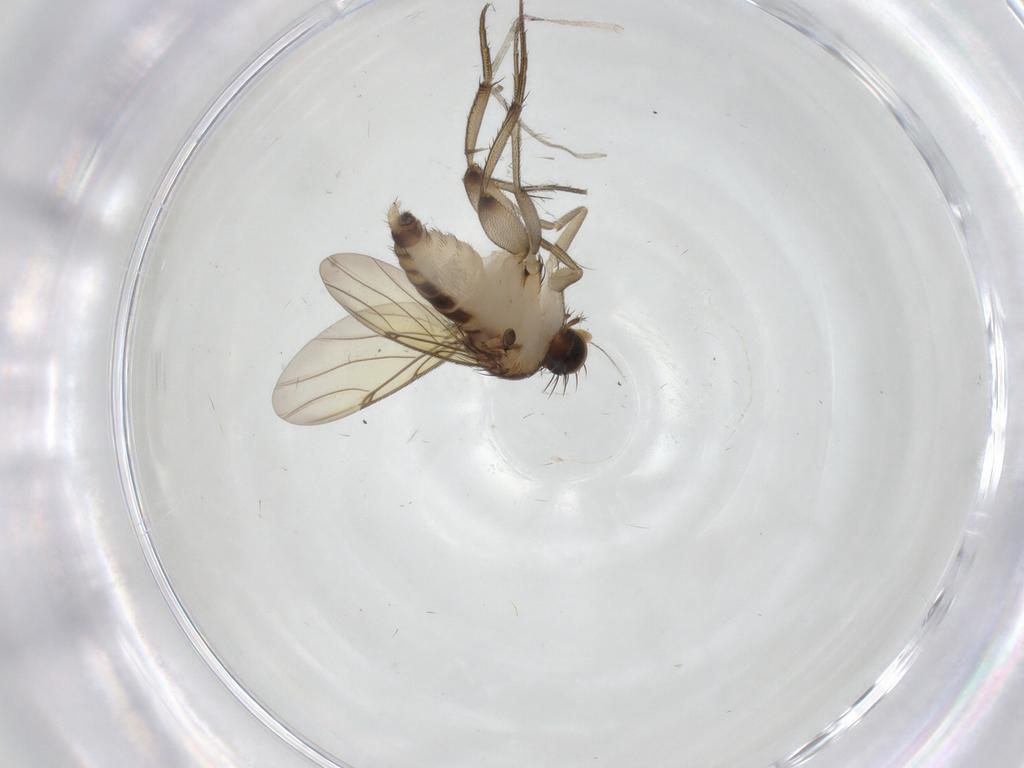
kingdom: Animalia
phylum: Arthropoda
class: Insecta
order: Diptera
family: Phoridae
